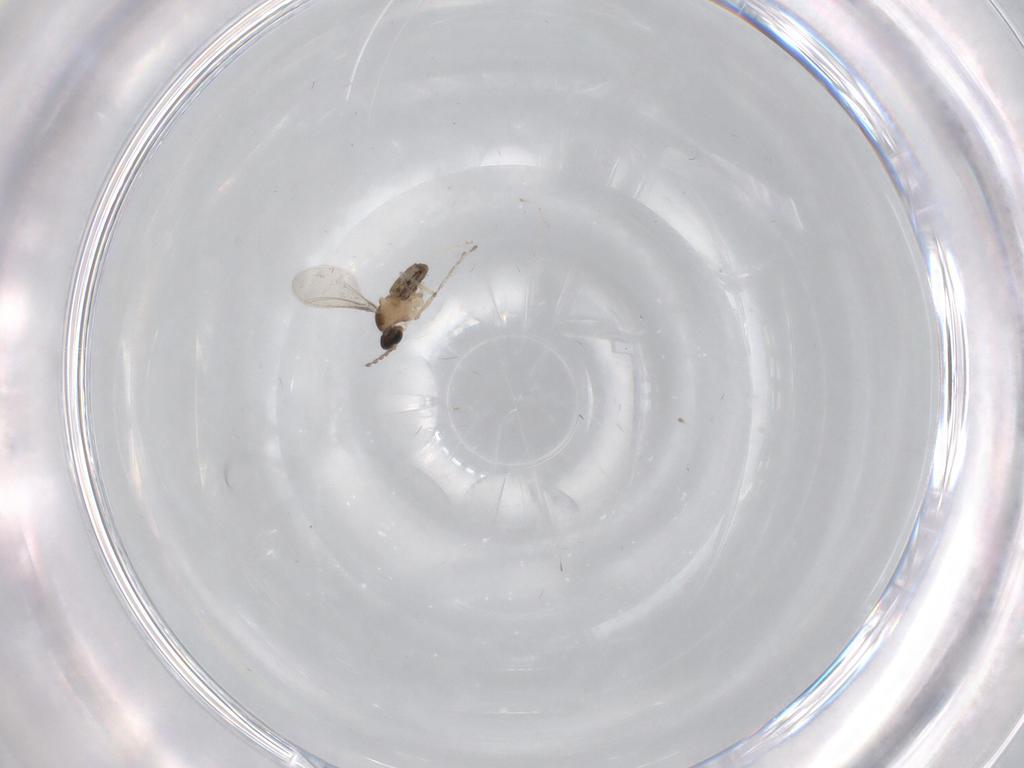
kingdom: Animalia
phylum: Arthropoda
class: Insecta
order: Diptera
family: Cecidomyiidae
